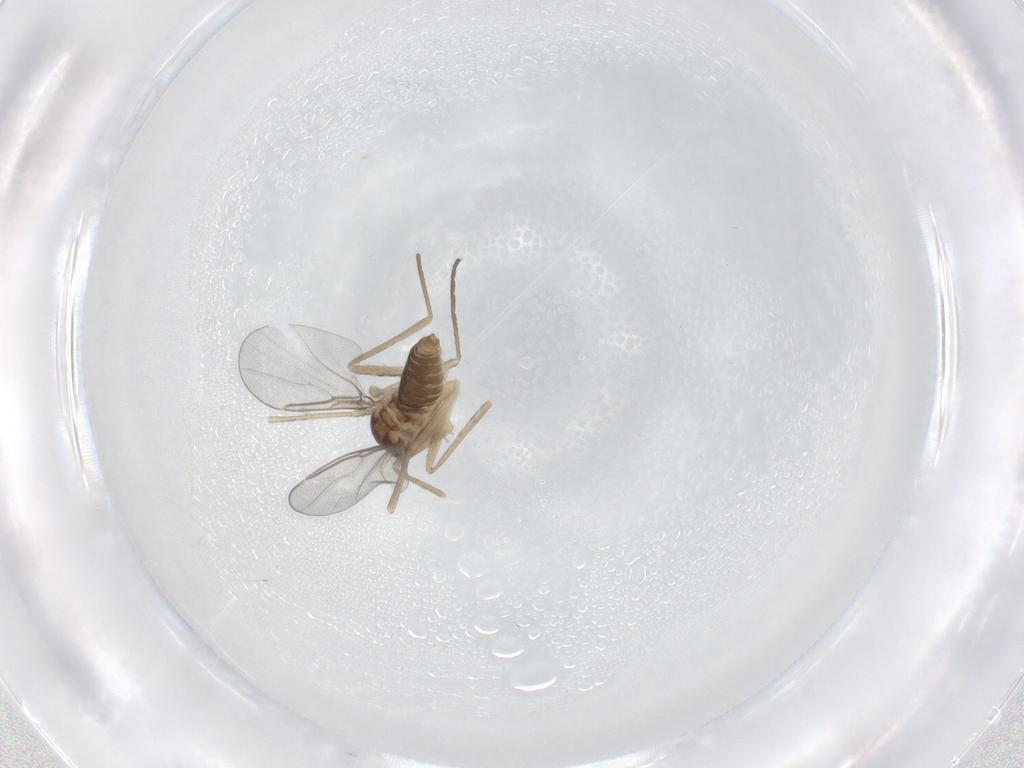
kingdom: Animalia
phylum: Arthropoda
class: Insecta
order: Diptera
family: Cecidomyiidae
